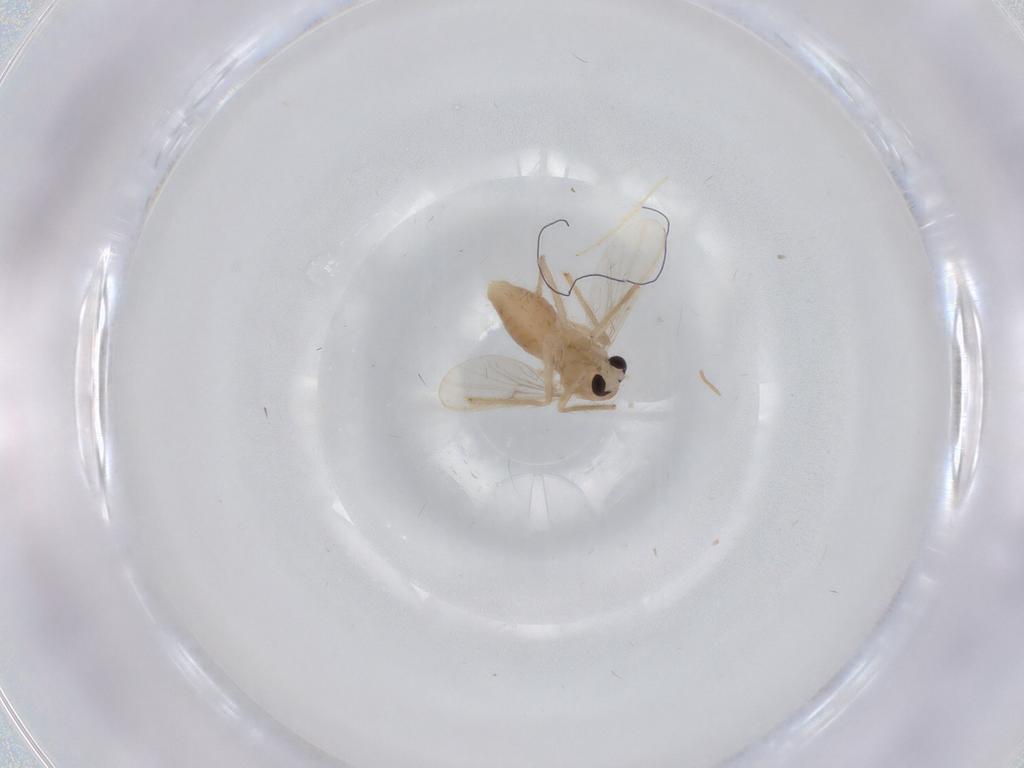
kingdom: Animalia
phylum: Arthropoda
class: Insecta
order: Diptera
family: Chironomidae
